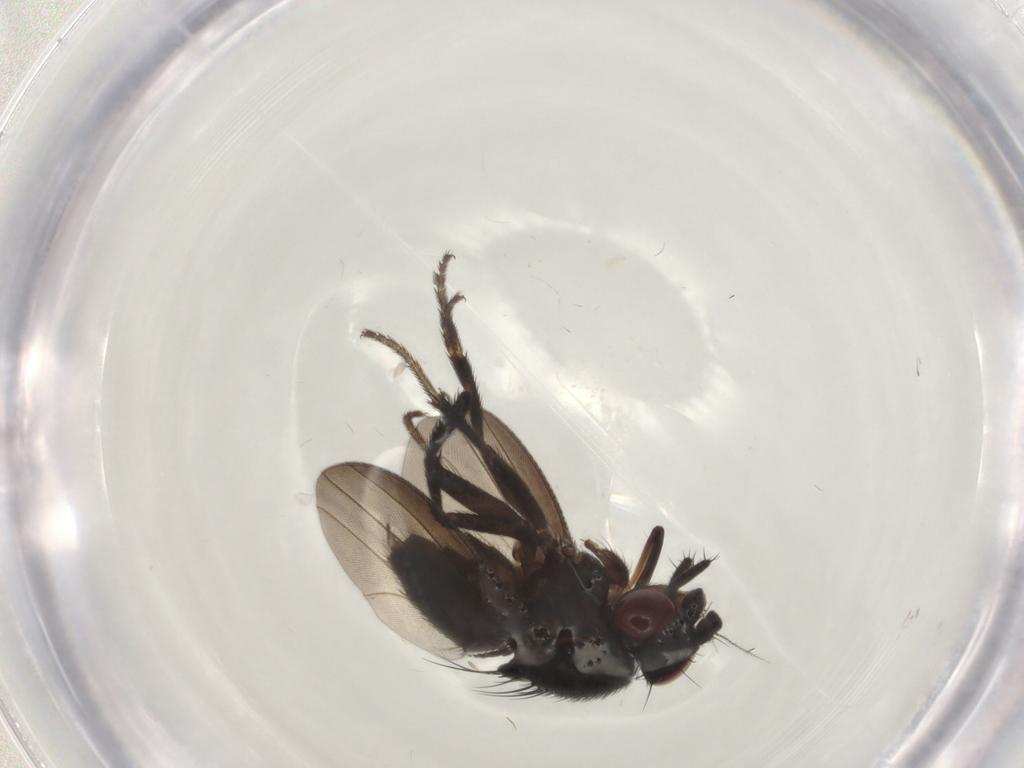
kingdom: Animalia
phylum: Arthropoda
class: Insecta
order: Diptera
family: Milichiidae
